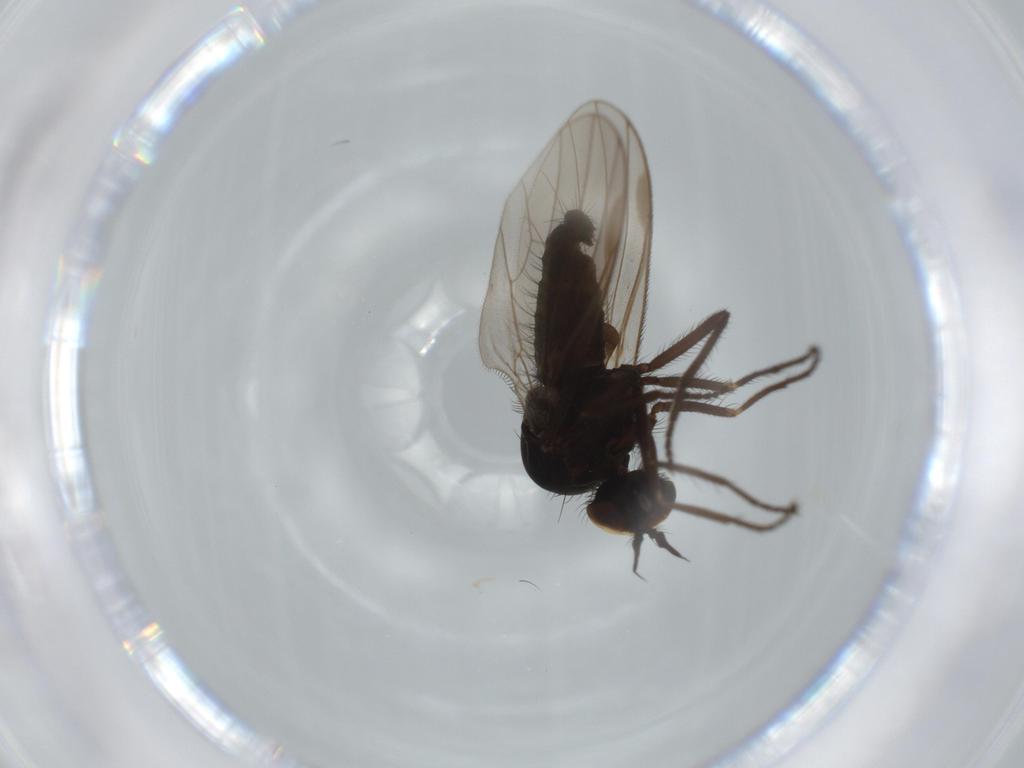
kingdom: Animalia
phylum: Arthropoda
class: Insecta
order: Diptera
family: Dolichopodidae
